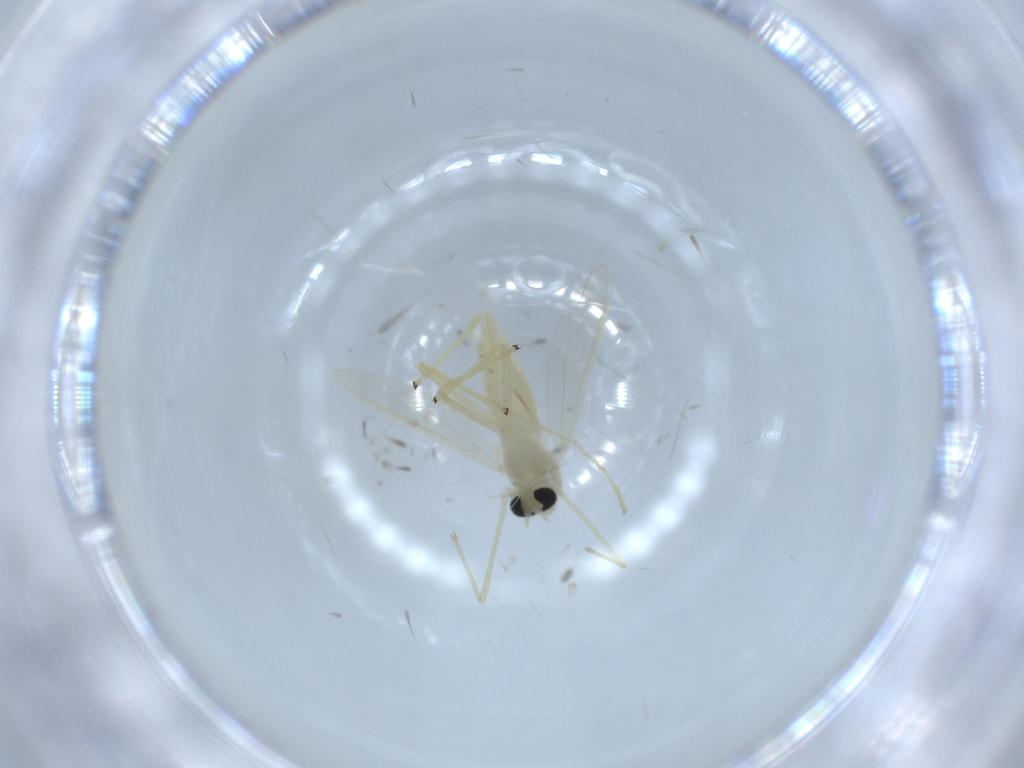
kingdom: Animalia
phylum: Arthropoda
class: Insecta
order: Diptera
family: Chironomidae
